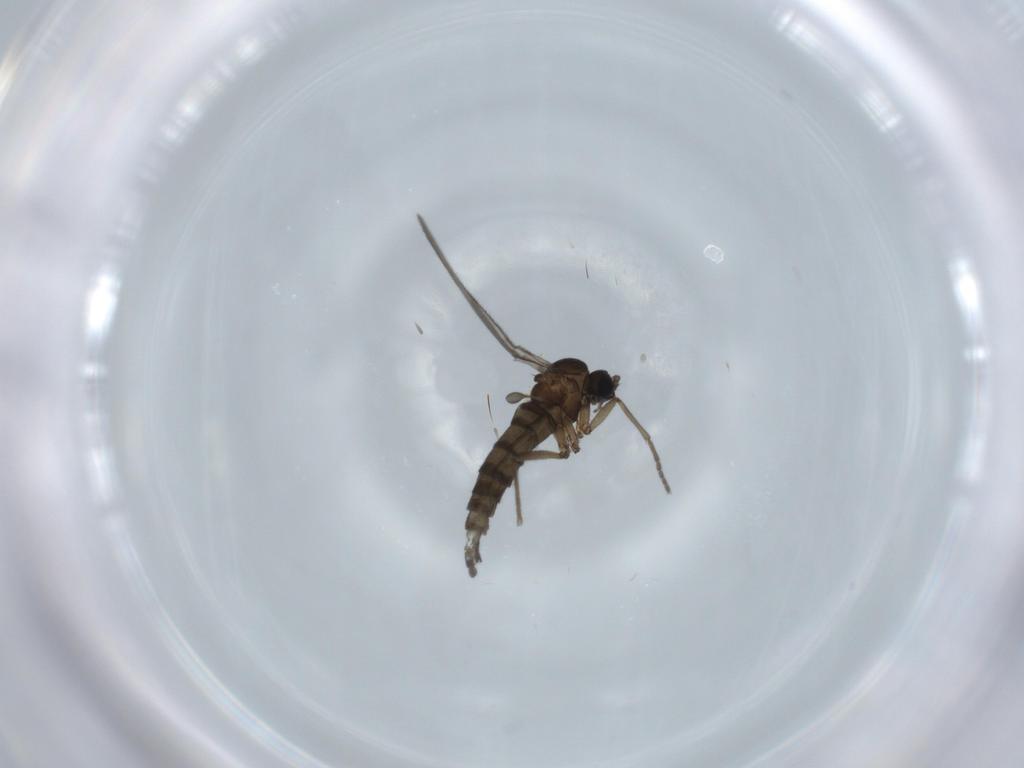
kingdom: Animalia
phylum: Arthropoda
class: Insecta
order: Diptera
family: Sciaridae
